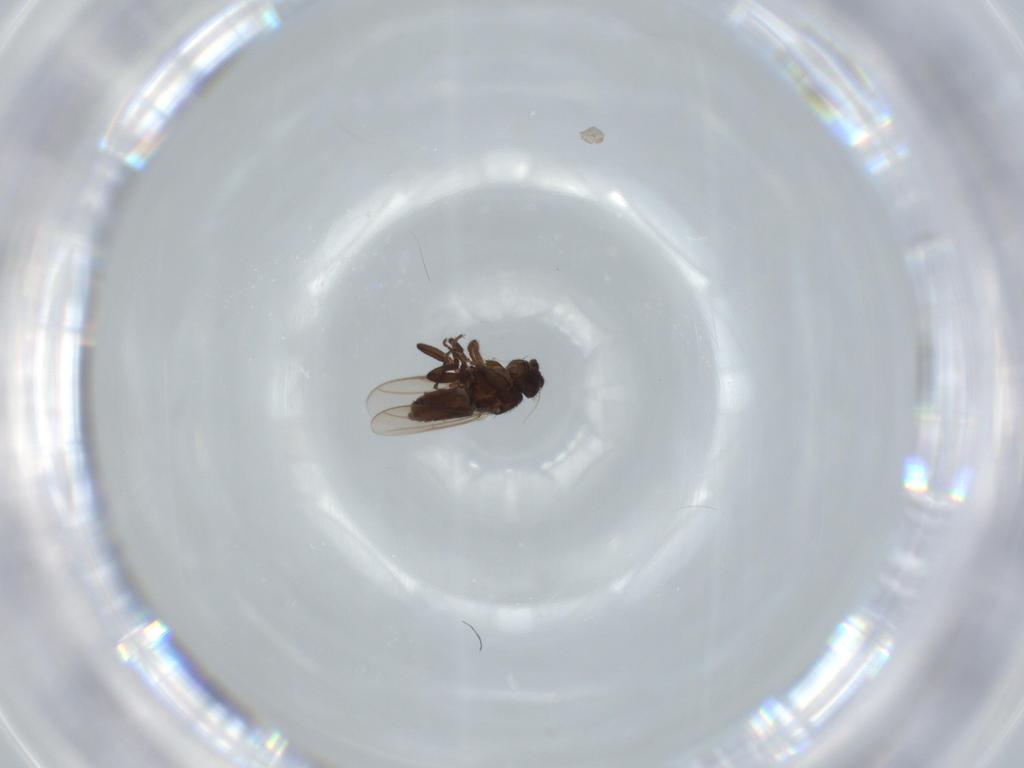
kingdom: Animalia
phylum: Arthropoda
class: Insecta
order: Diptera
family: Sphaeroceridae
